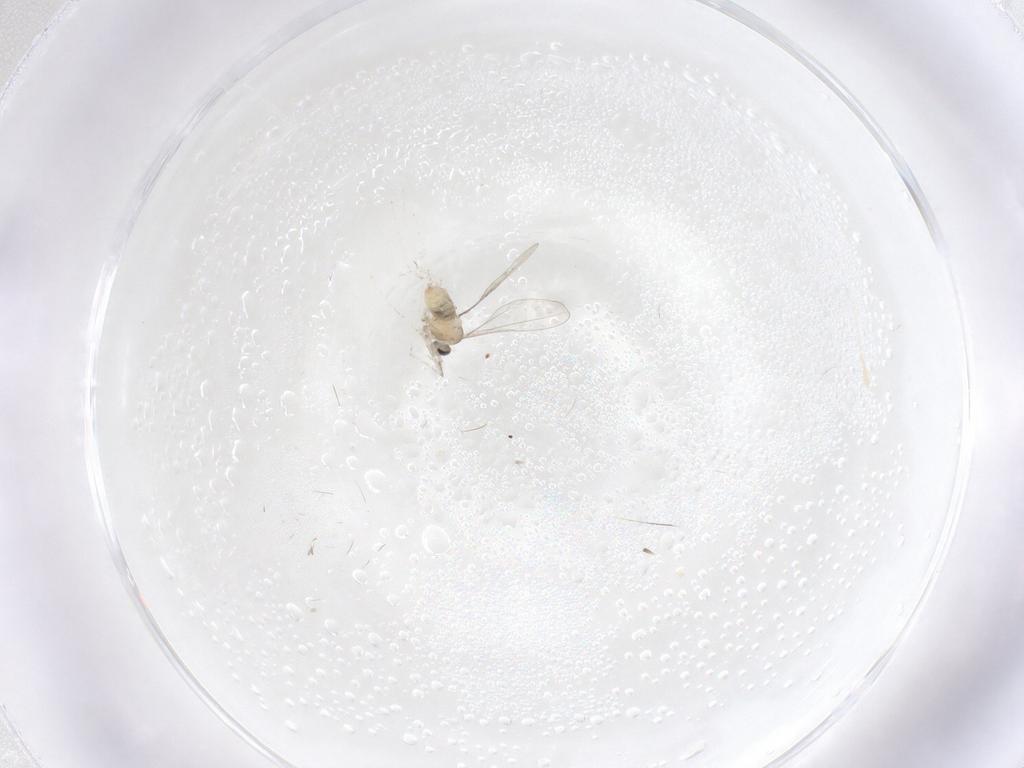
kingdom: Animalia
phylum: Arthropoda
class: Insecta
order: Diptera
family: Cecidomyiidae
